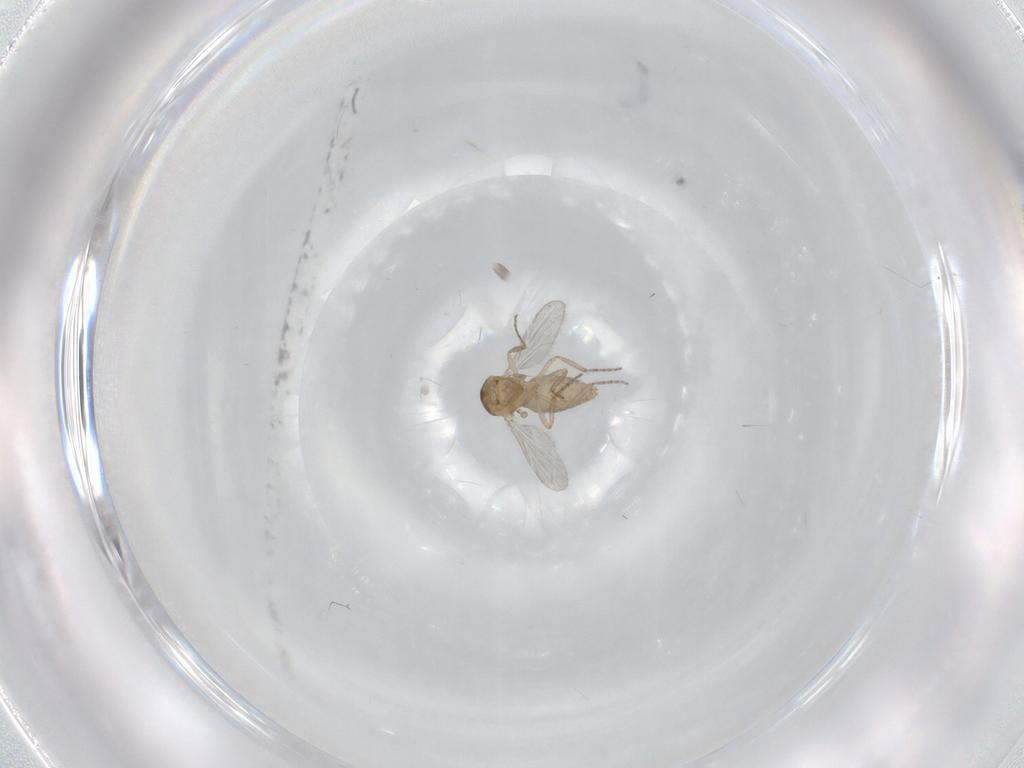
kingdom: Animalia
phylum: Arthropoda
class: Insecta
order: Diptera
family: Ceratopogonidae
